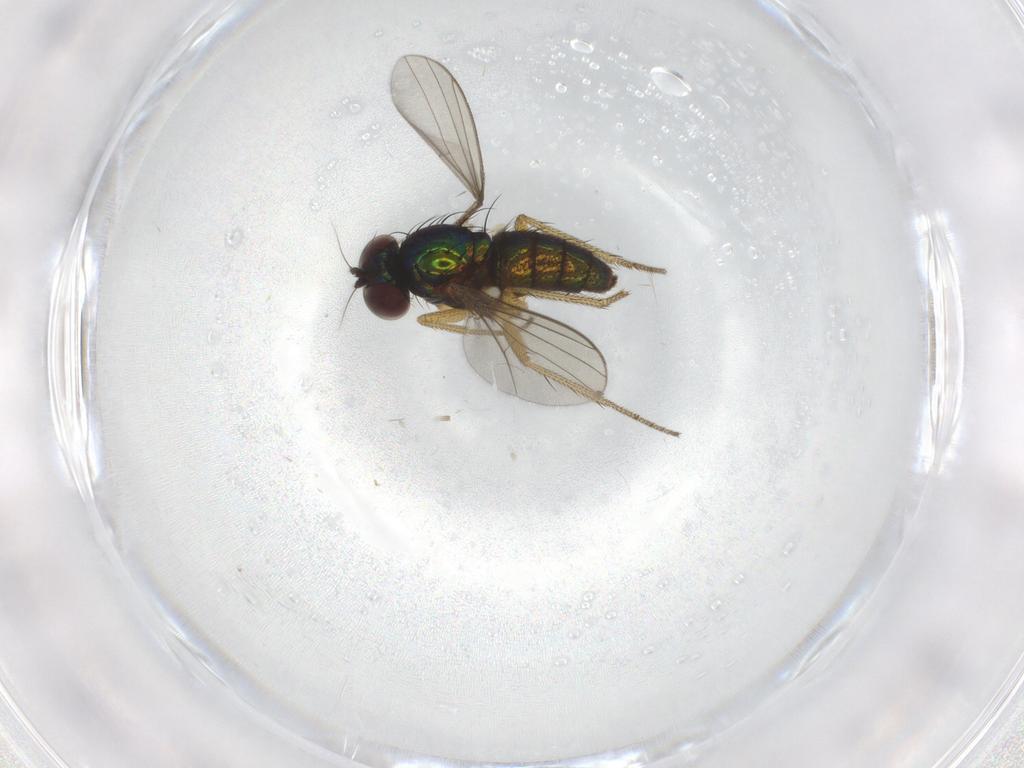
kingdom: Animalia
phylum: Arthropoda
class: Insecta
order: Diptera
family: Dolichopodidae
